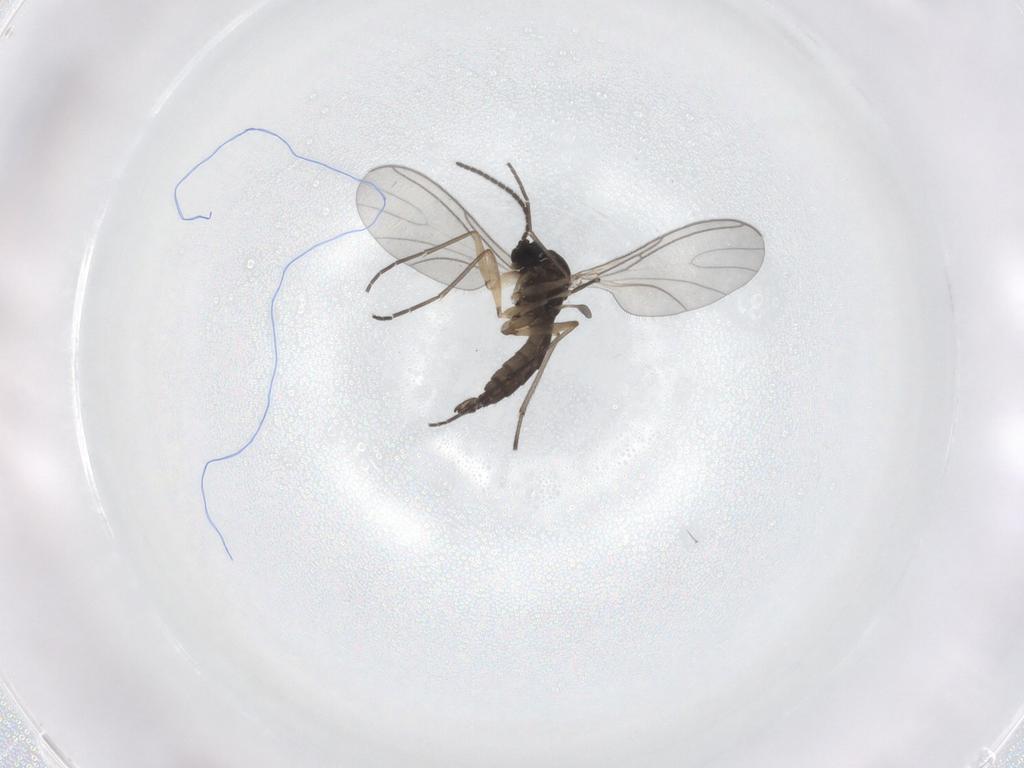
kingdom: Animalia
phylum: Arthropoda
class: Insecta
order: Diptera
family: Sciaridae
